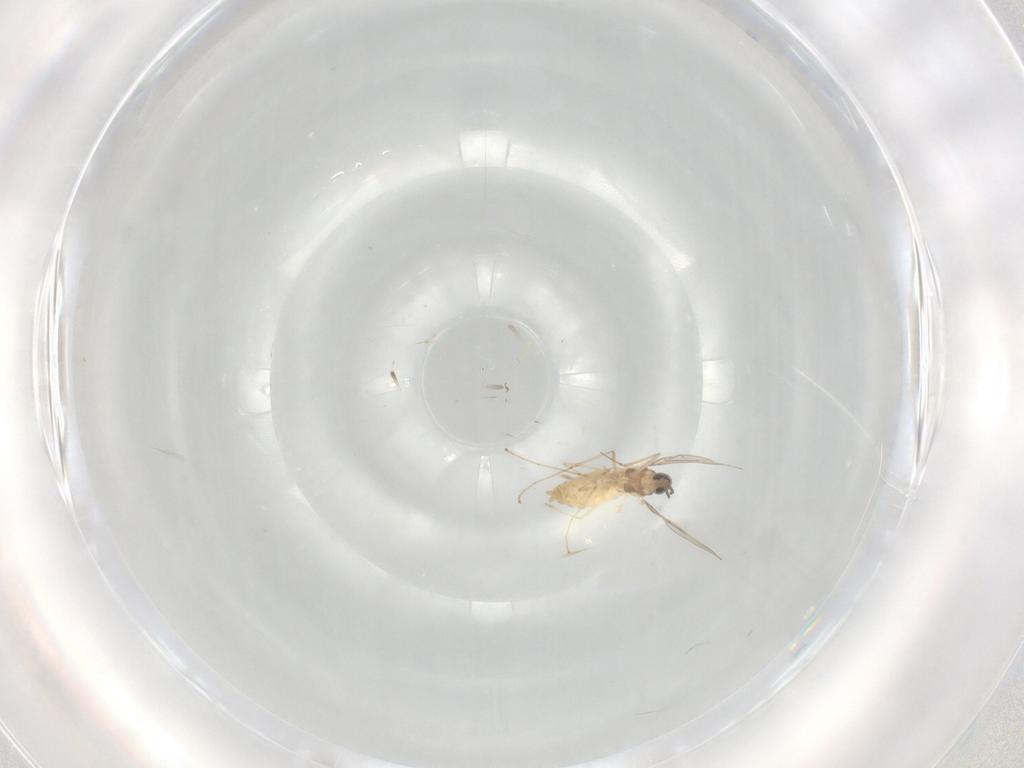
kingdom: Animalia
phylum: Arthropoda
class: Insecta
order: Diptera
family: Cecidomyiidae
